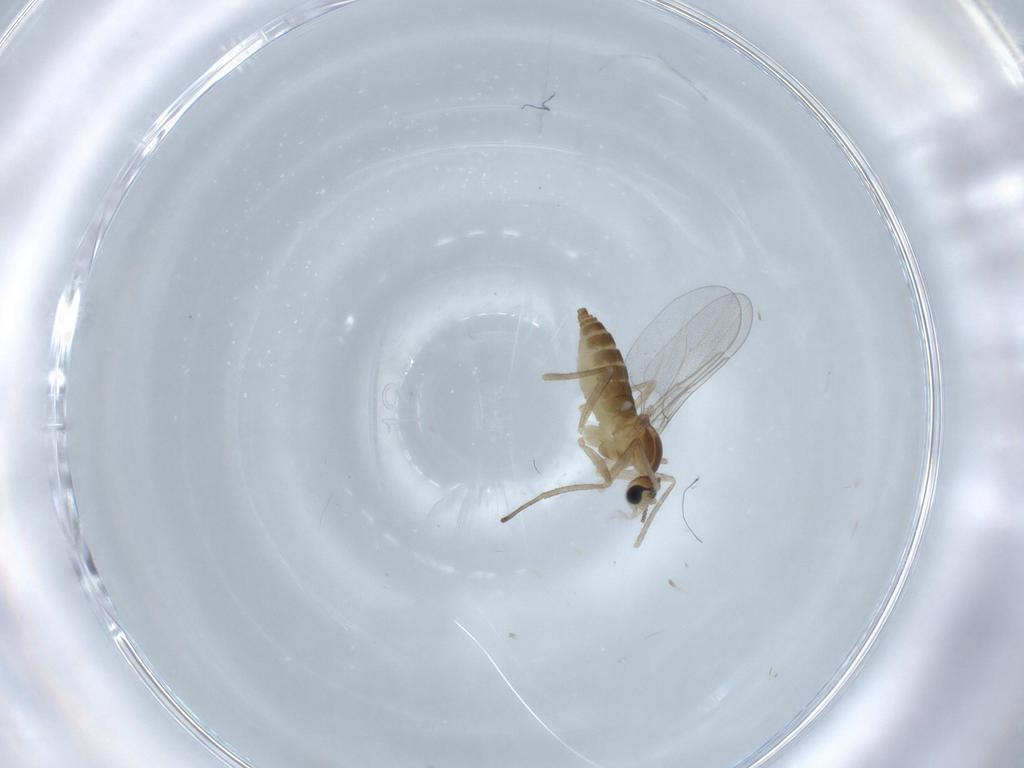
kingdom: Animalia
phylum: Arthropoda
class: Insecta
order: Diptera
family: Cecidomyiidae
